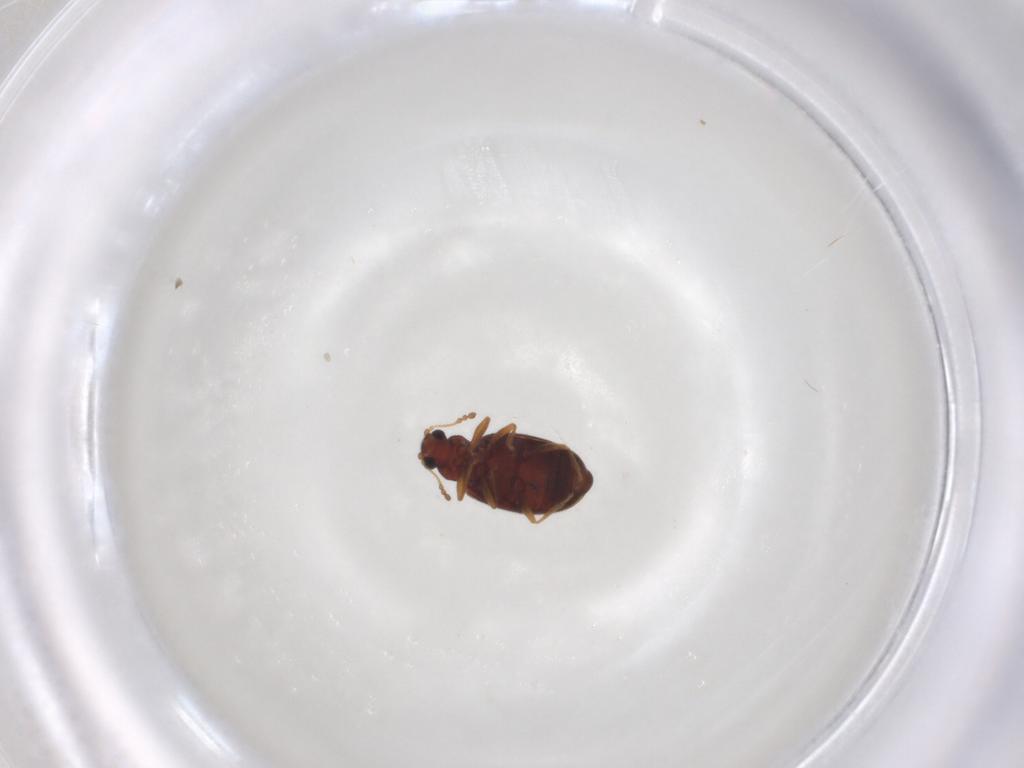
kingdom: Animalia
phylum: Arthropoda
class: Insecta
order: Coleoptera
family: Latridiidae
